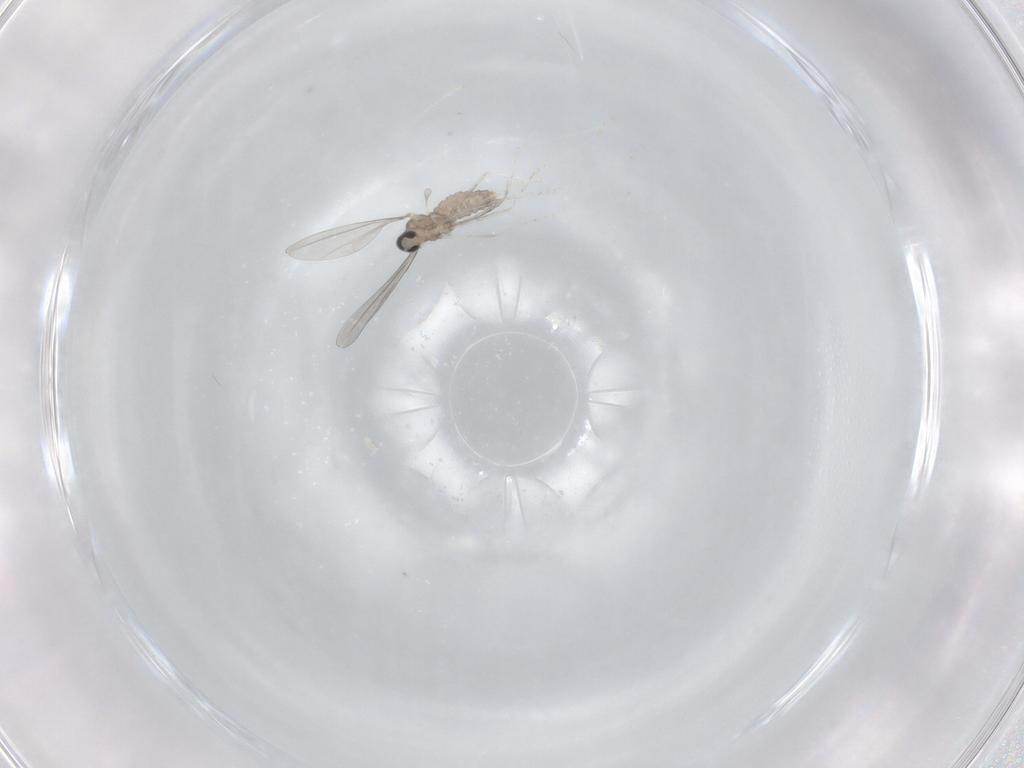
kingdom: Animalia
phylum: Arthropoda
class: Insecta
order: Diptera
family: Cecidomyiidae
